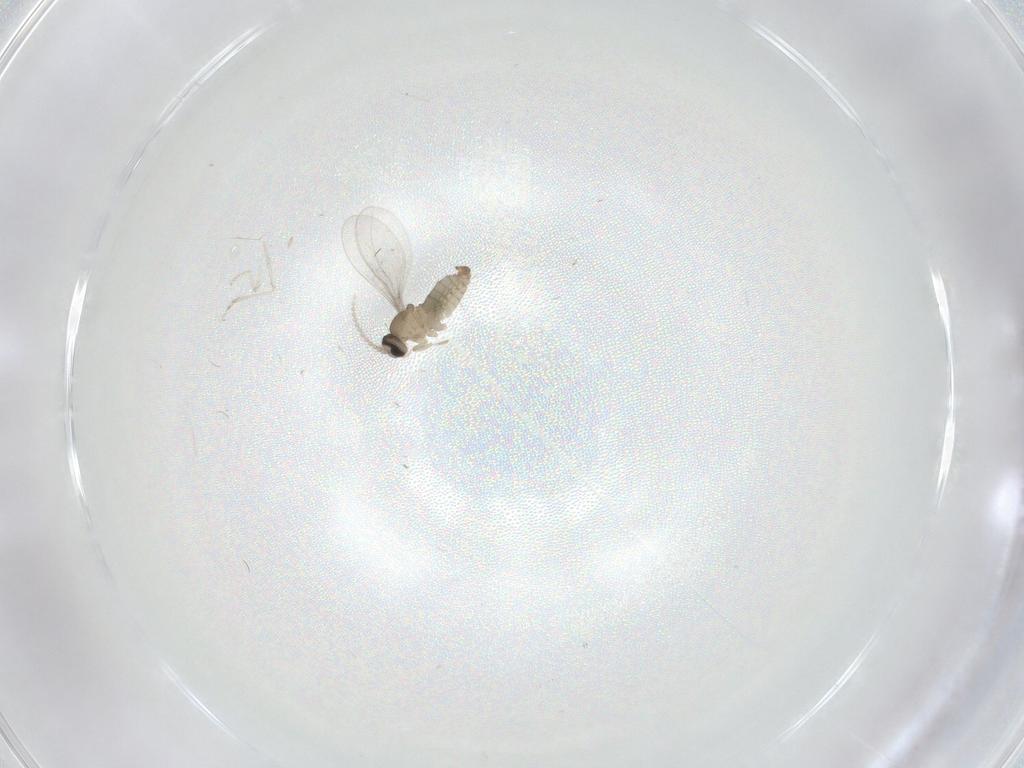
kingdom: Animalia
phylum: Arthropoda
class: Insecta
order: Diptera
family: Cecidomyiidae
